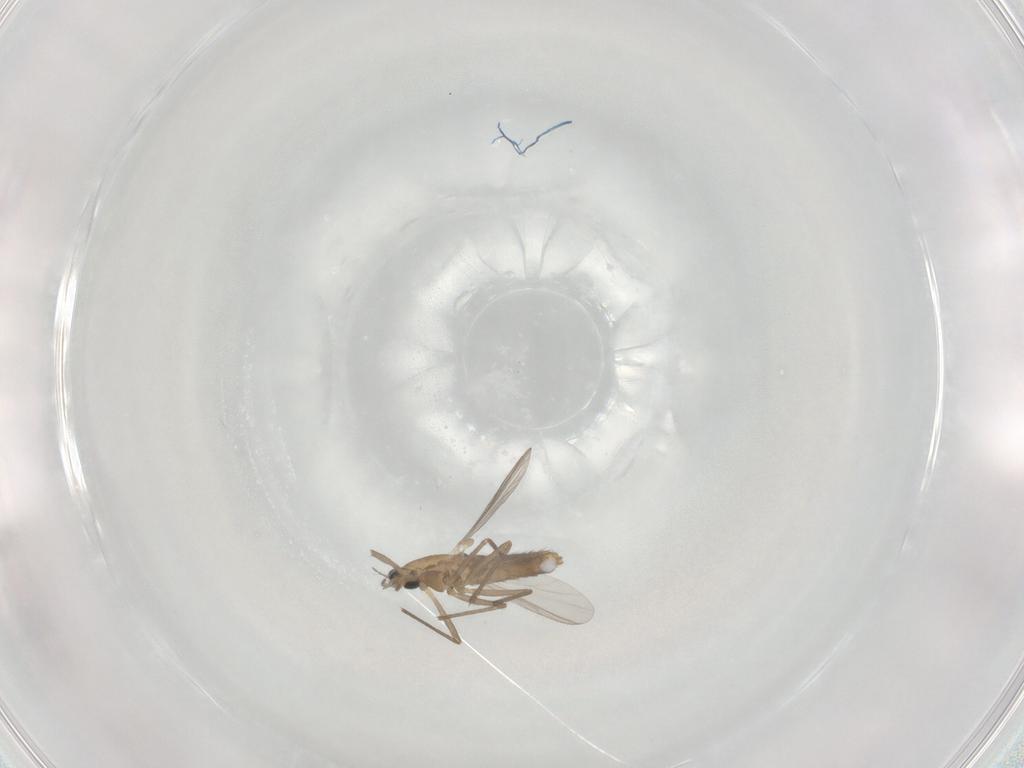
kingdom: Animalia
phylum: Arthropoda
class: Insecta
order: Diptera
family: Chironomidae
